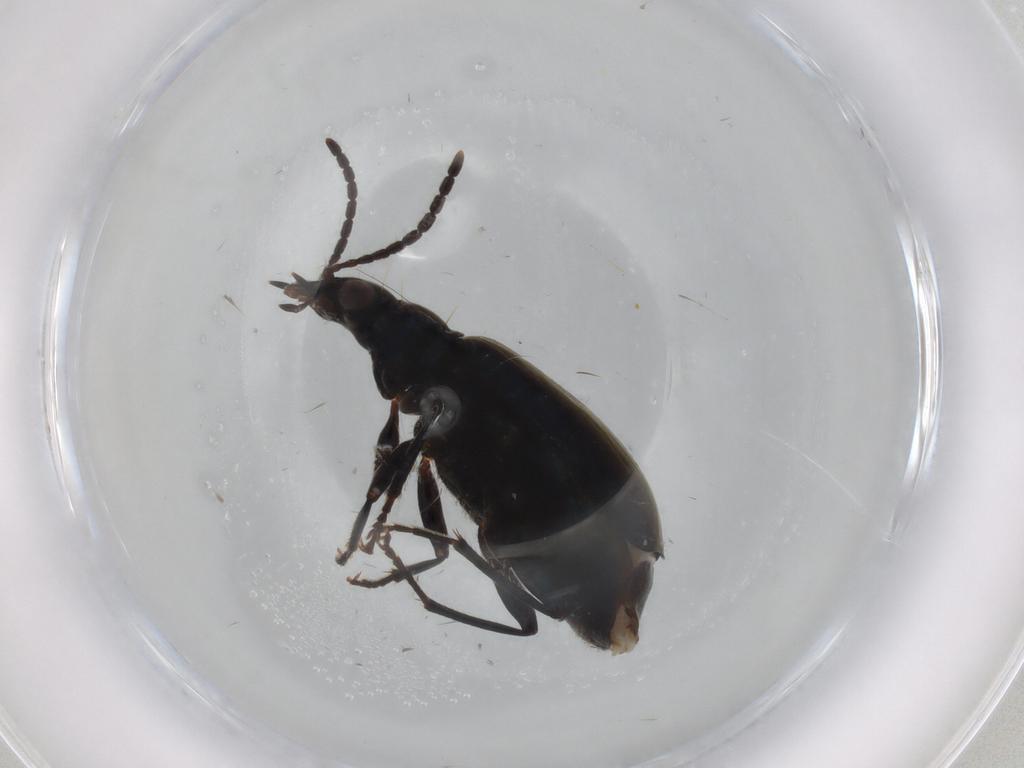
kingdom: Animalia
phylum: Arthropoda
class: Insecta
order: Coleoptera
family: Carabidae
